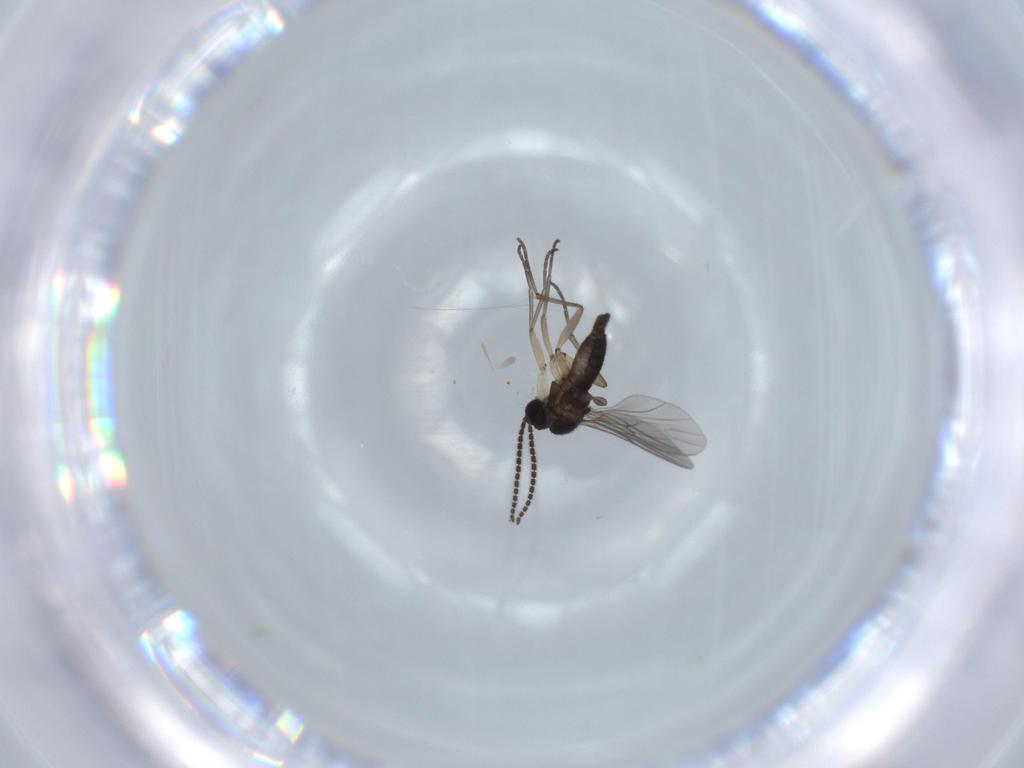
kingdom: Animalia
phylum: Arthropoda
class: Insecta
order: Diptera
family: Sciaridae
